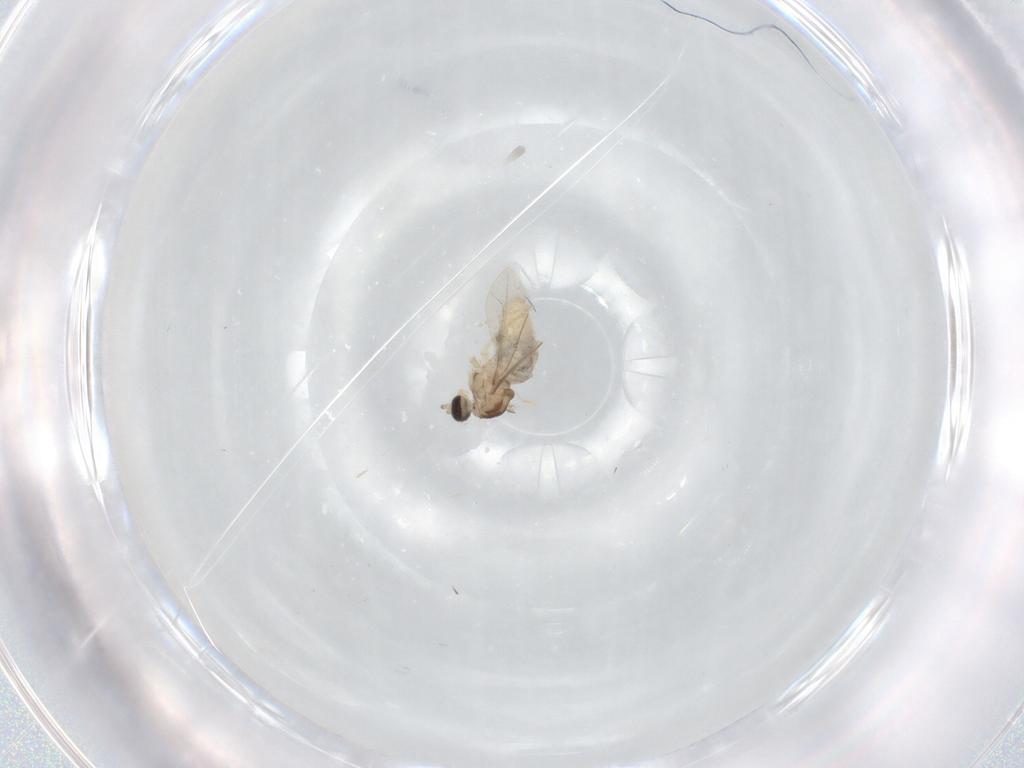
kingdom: Animalia
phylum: Arthropoda
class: Insecta
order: Diptera
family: Cecidomyiidae
